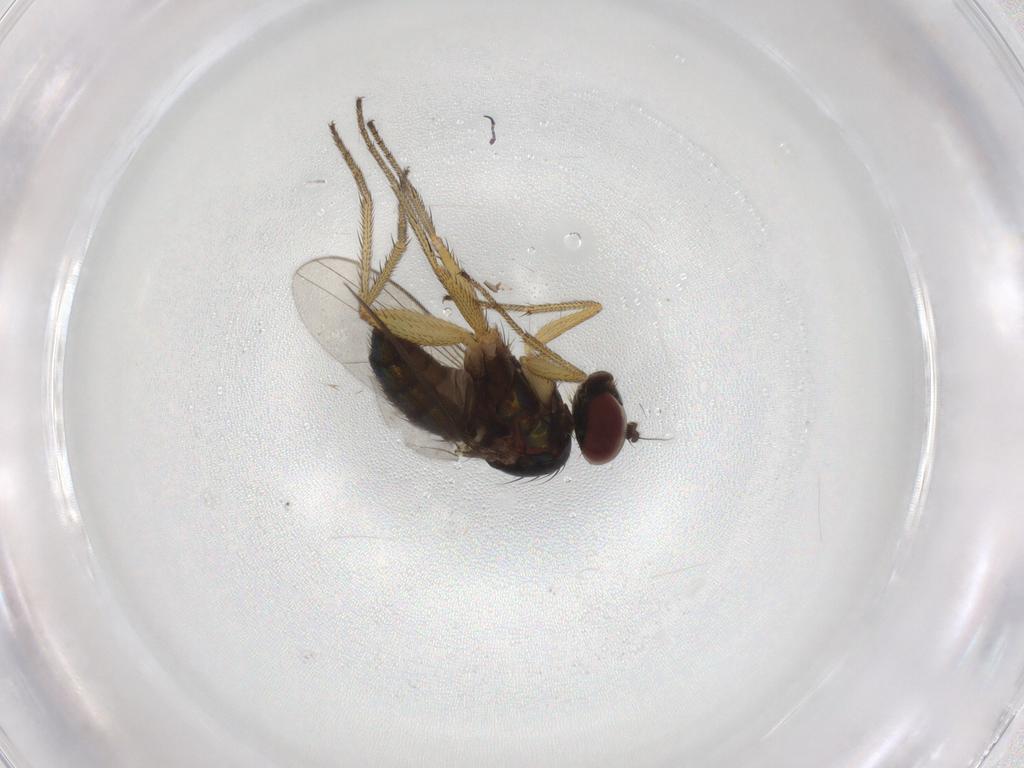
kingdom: Animalia
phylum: Arthropoda
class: Insecta
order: Diptera
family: Dolichopodidae
